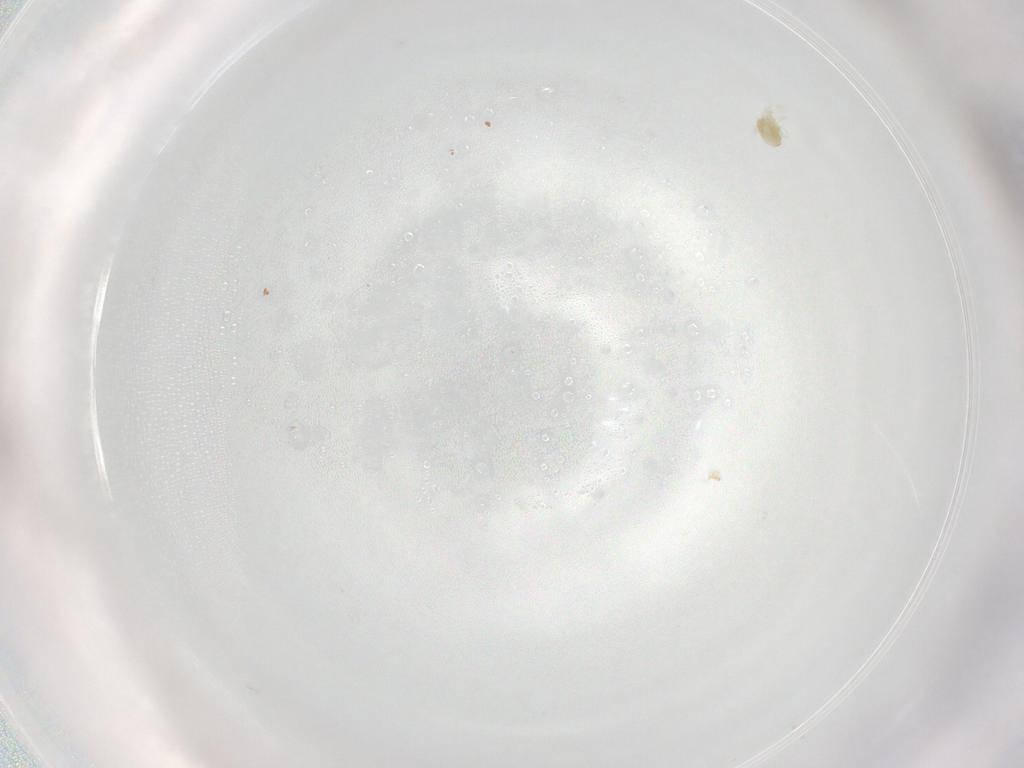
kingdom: Animalia
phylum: Arthropoda
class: Arachnida
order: Trombidiformes
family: Eupodidae
